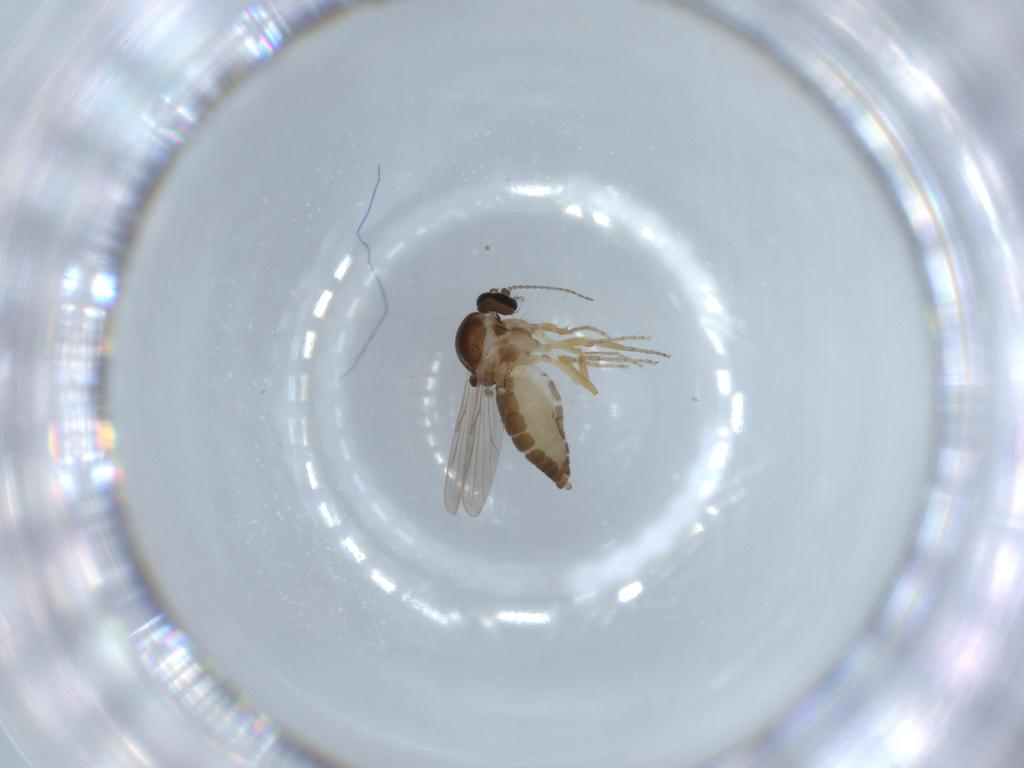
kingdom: Animalia
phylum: Arthropoda
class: Insecta
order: Diptera
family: Ceratopogonidae
